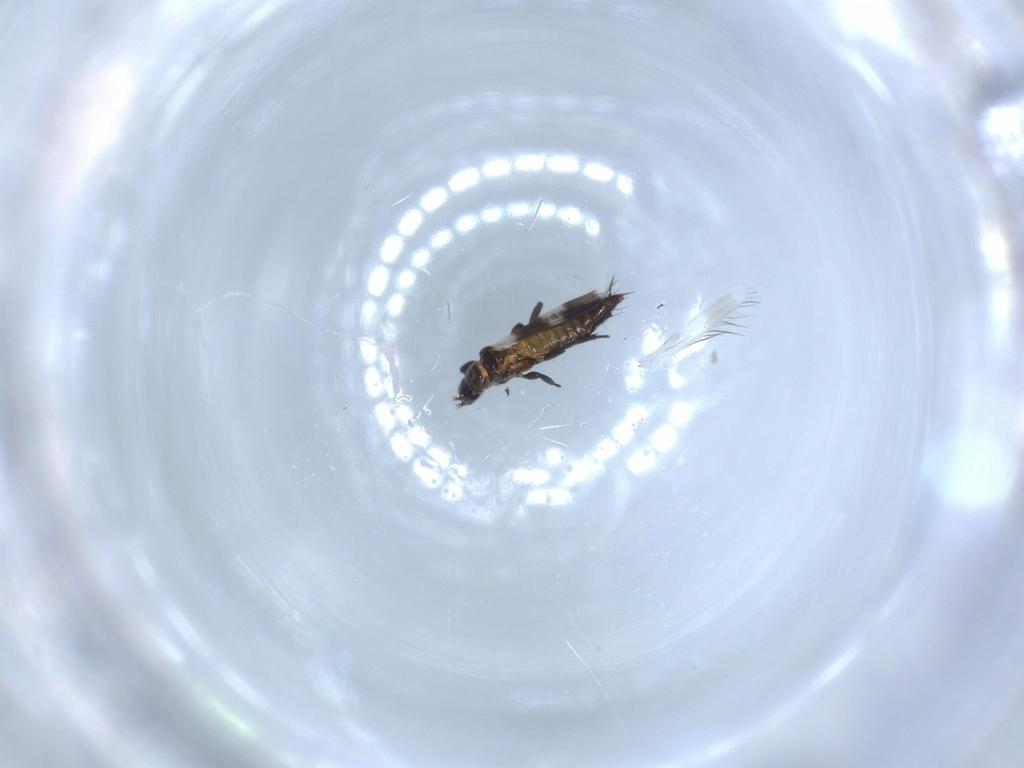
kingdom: Animalia
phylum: Arthropoda
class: Insecta
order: Thysanoptera
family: Aeolothripidae
